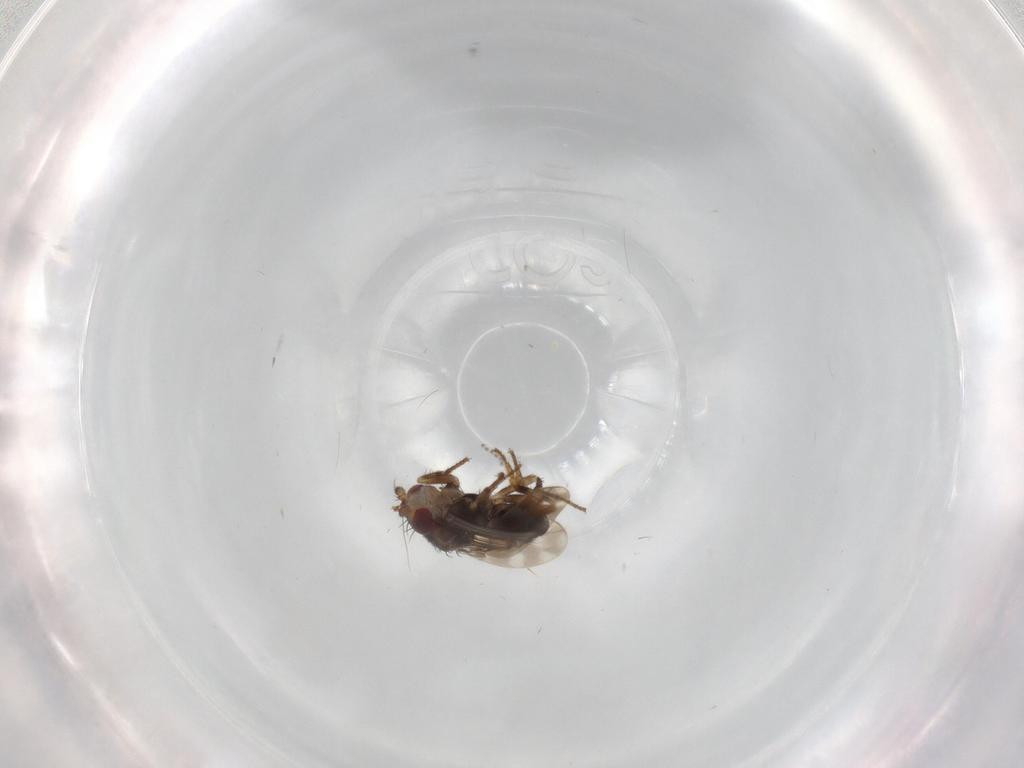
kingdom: Animalia
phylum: Arthropoda
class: Insecta
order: Diptera
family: Sphaeroceridae
